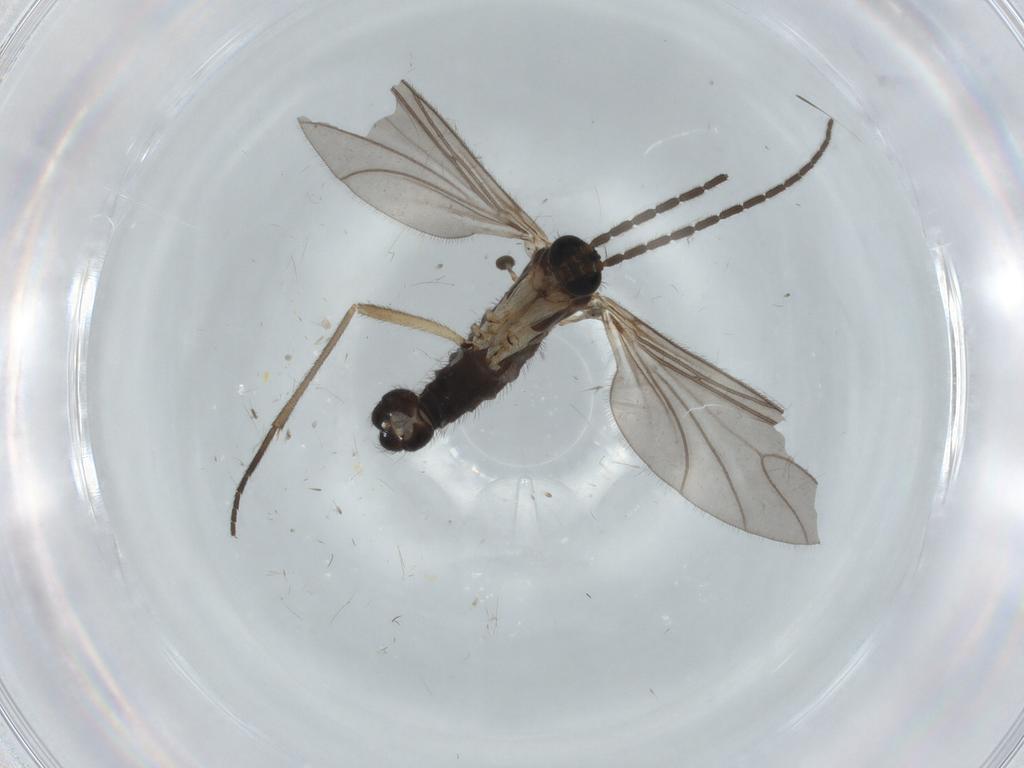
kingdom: Animalia
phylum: Arthropoda
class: Insecta
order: Diptera
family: Sciaridae
